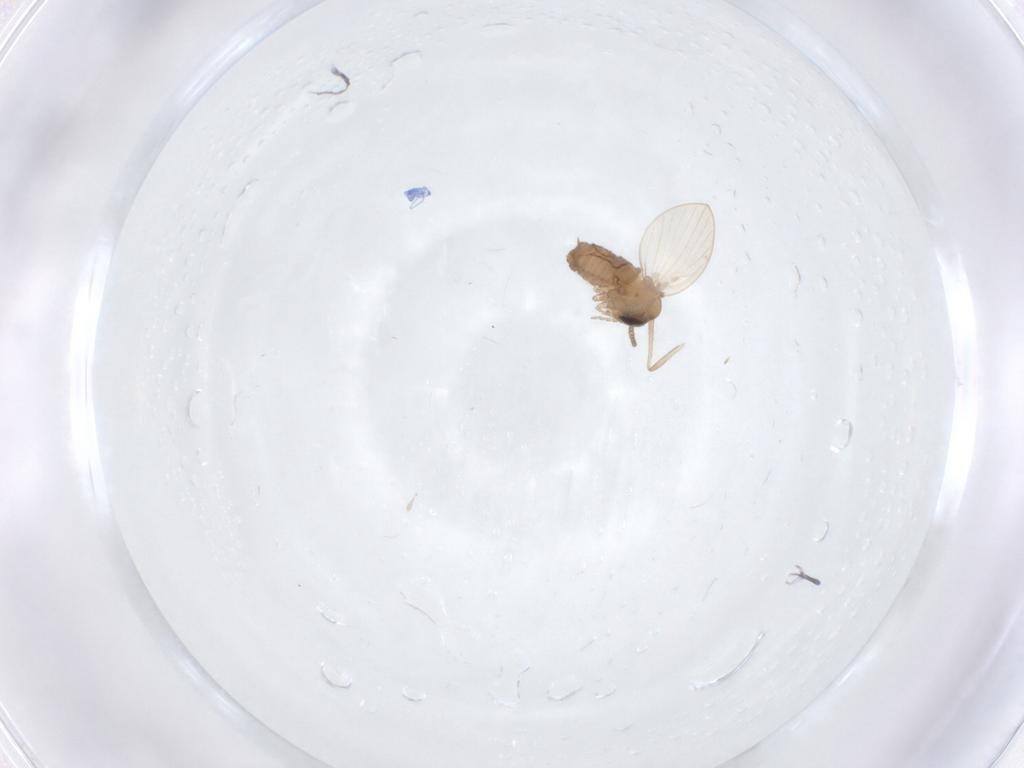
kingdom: Animalia
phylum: Arthropoda
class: Insecta
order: Diptera
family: Psychodidae
